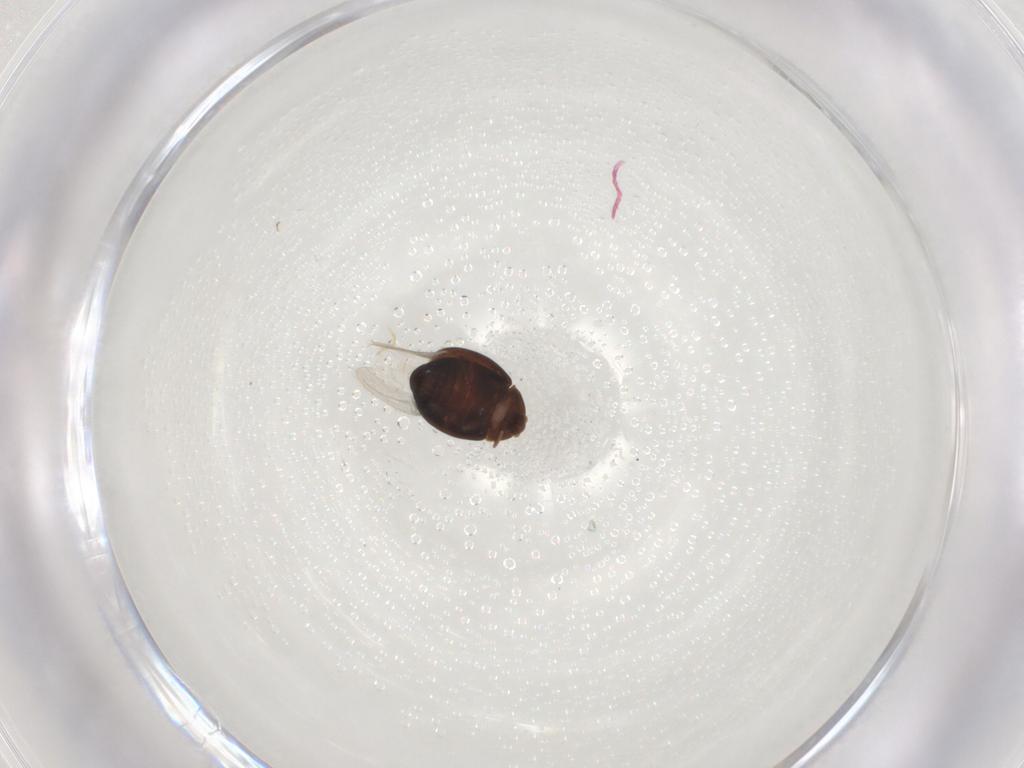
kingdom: Animalia
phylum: Arthropoda
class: Insecta
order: Coleoptera
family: Corylophidae
